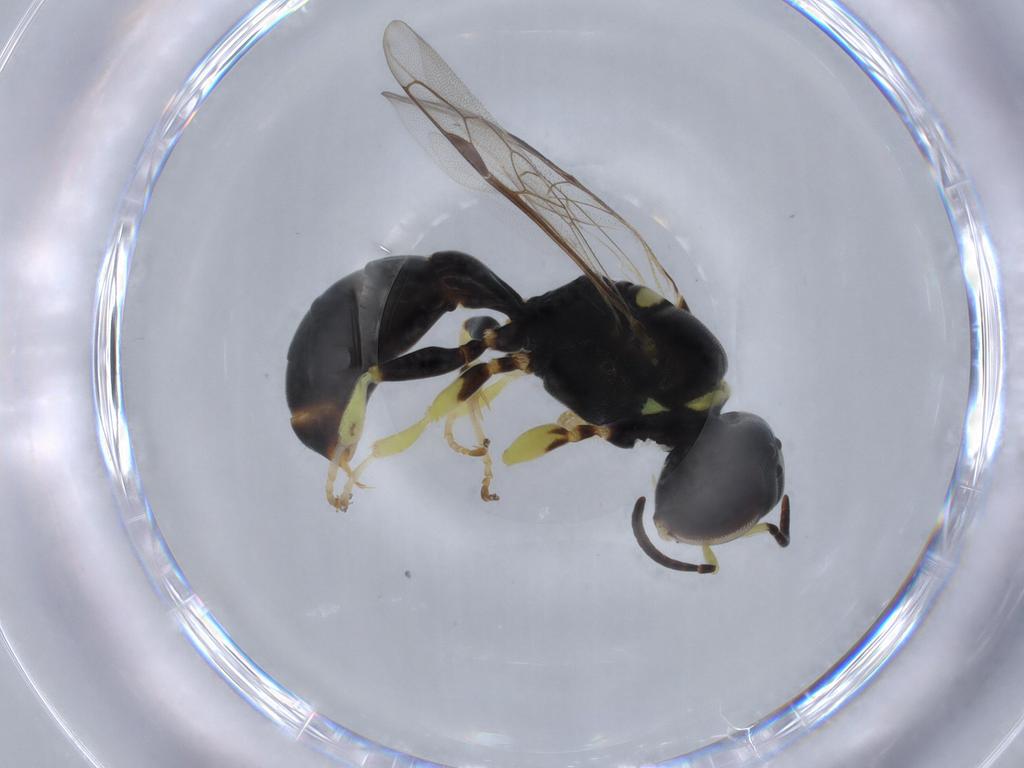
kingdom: Animalia
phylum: Arthropoda
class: Insecta
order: Hymenoptera
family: Crabronidae
